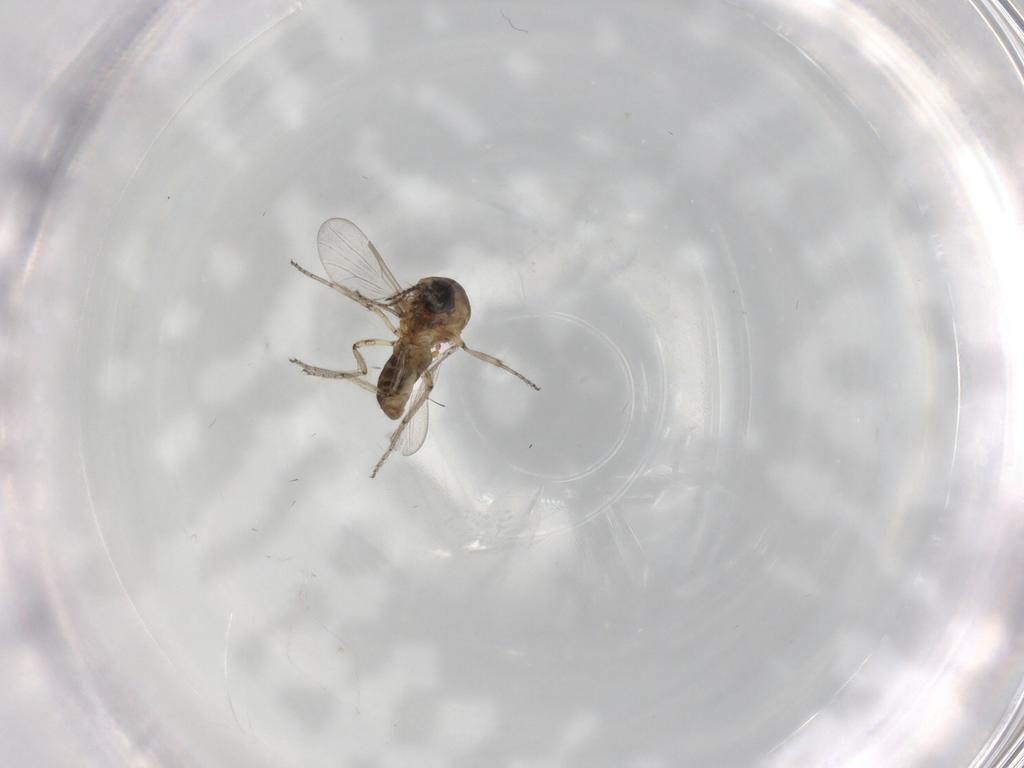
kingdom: Animalia
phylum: Arthropoda
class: Insecta
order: Diptera
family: Ceratopogonidae
